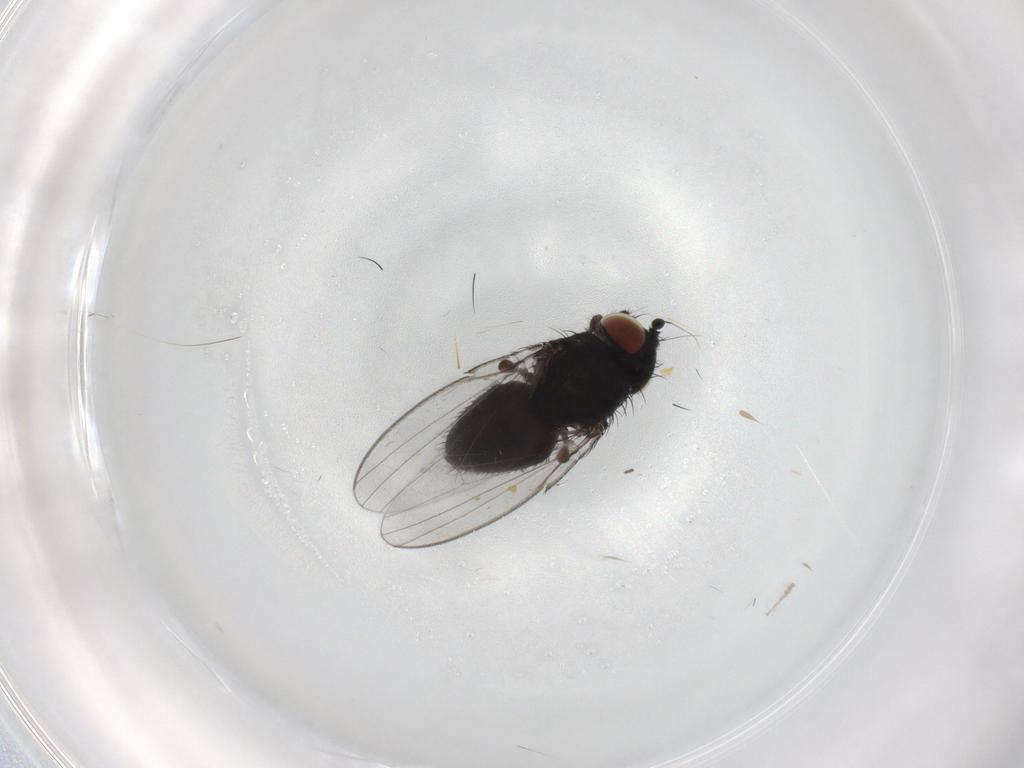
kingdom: Animalia
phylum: Arthropoda
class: Insecta
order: Diptera
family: Milichiidae
